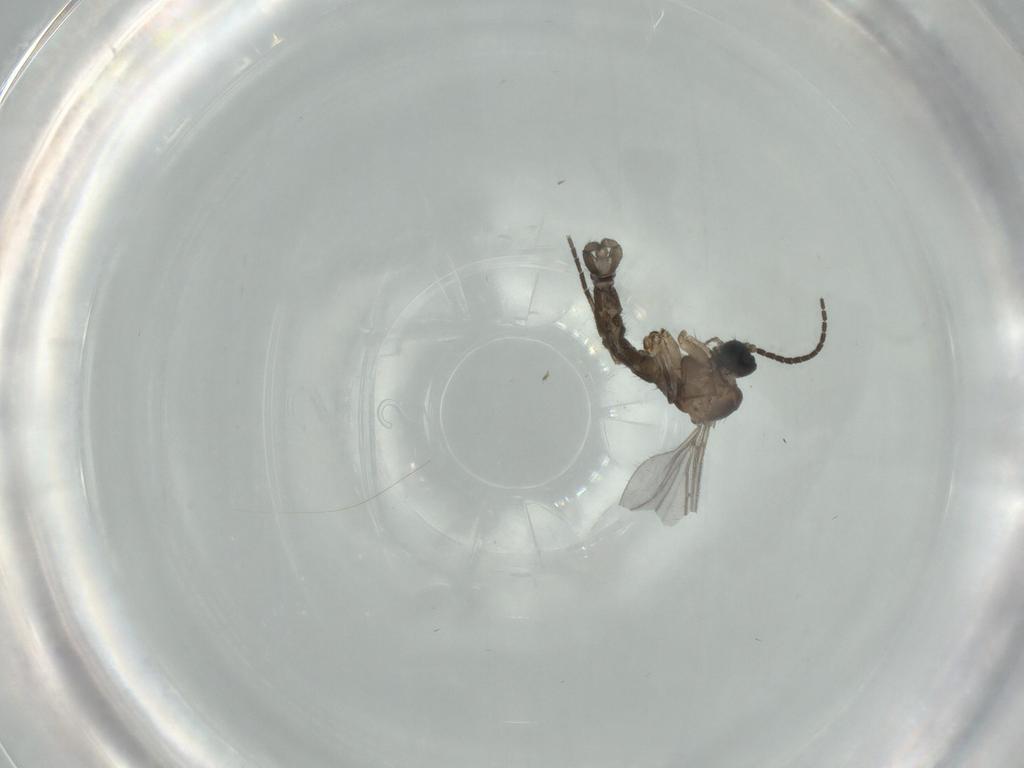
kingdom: Animalia
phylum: Arthropoda
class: Insecta
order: Diptera
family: Sciaridae
